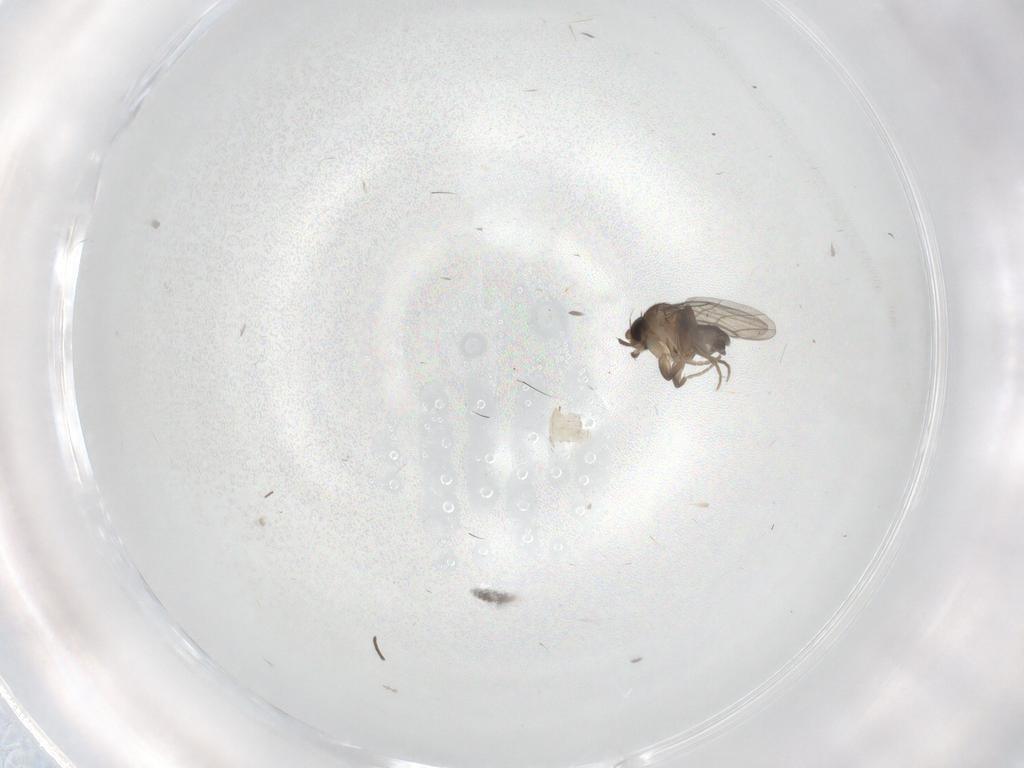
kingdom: Animalia
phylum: Arthropoda
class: Insecta
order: Diptera
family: Cecidomyiidae
